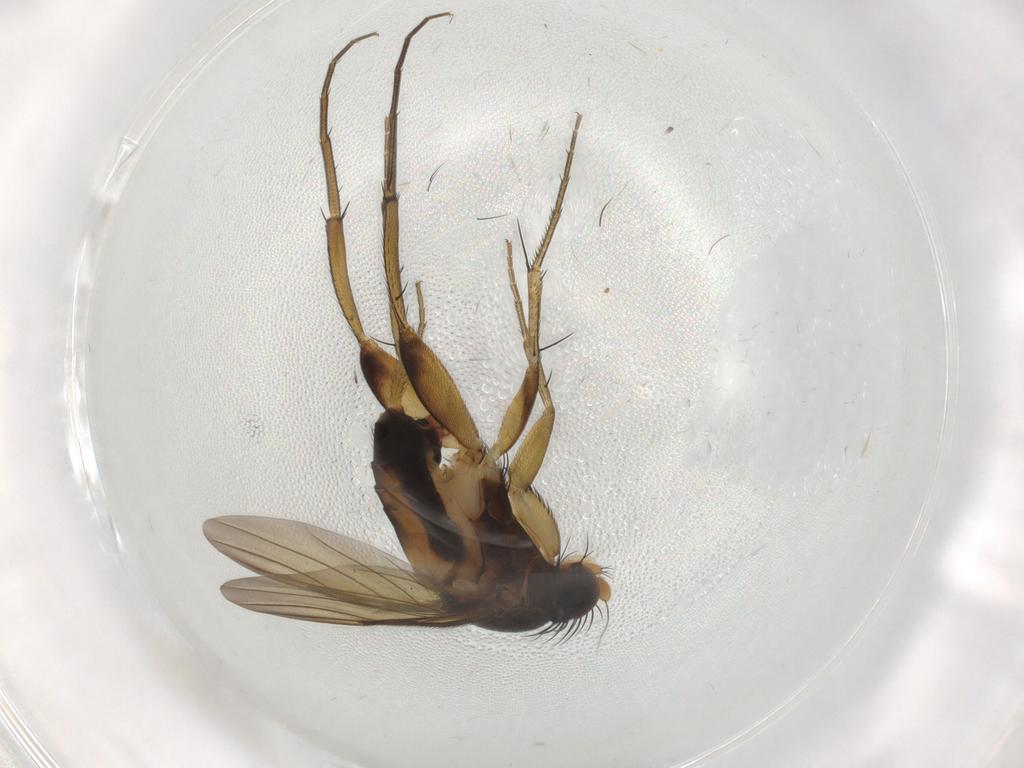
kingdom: Animalia
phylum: Arthropoda
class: Insecta
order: Diptera
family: Phoridae
